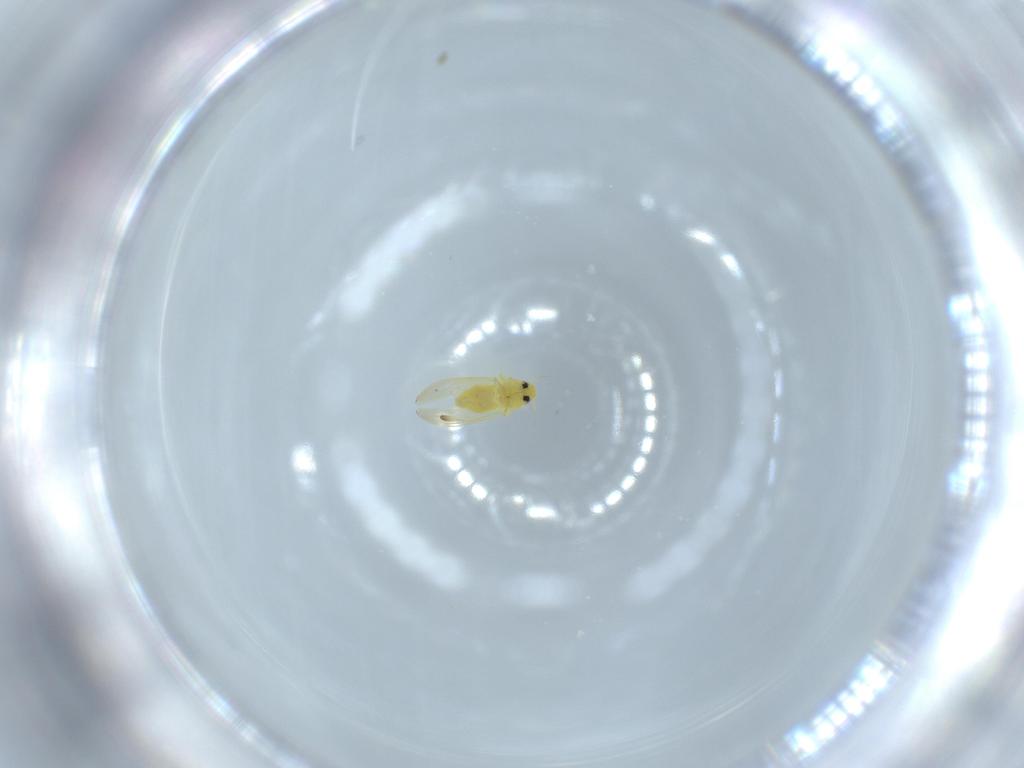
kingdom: Animalia
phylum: Arthropoda
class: Insecta
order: Hemiptera
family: Aleyrodidae
